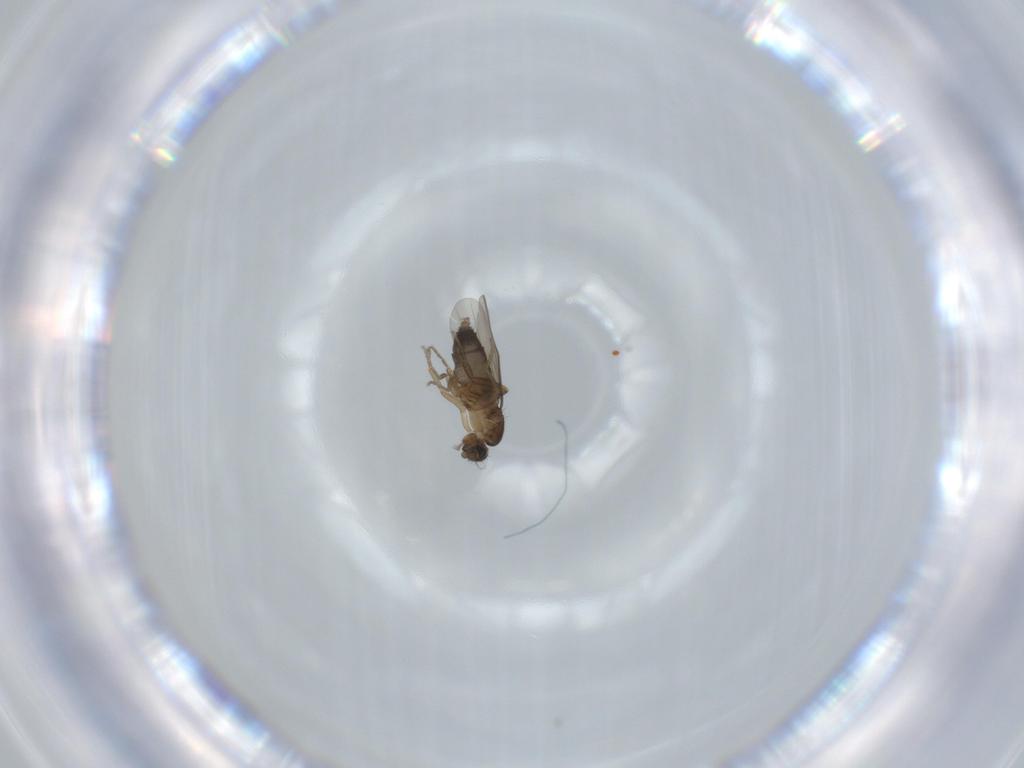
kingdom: Animalia
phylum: Arthropoda
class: Insecta
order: Diptera
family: Phoridae
